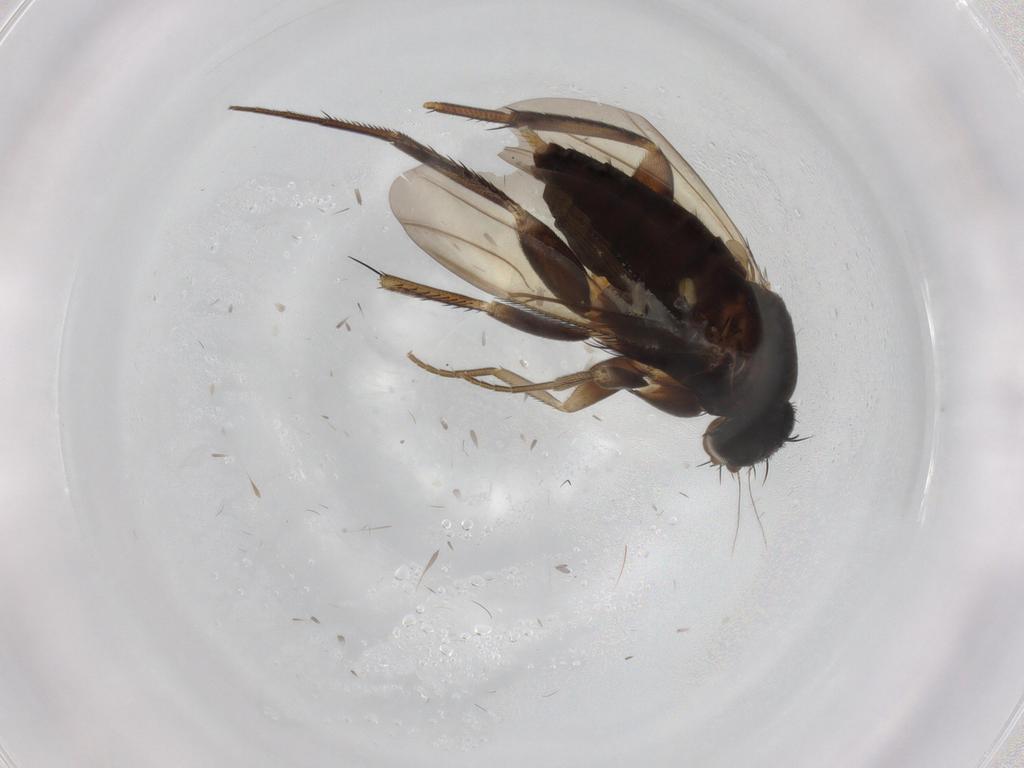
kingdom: Animalia
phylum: Arthropoda
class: Insecta
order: Diptera
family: Phoridae
